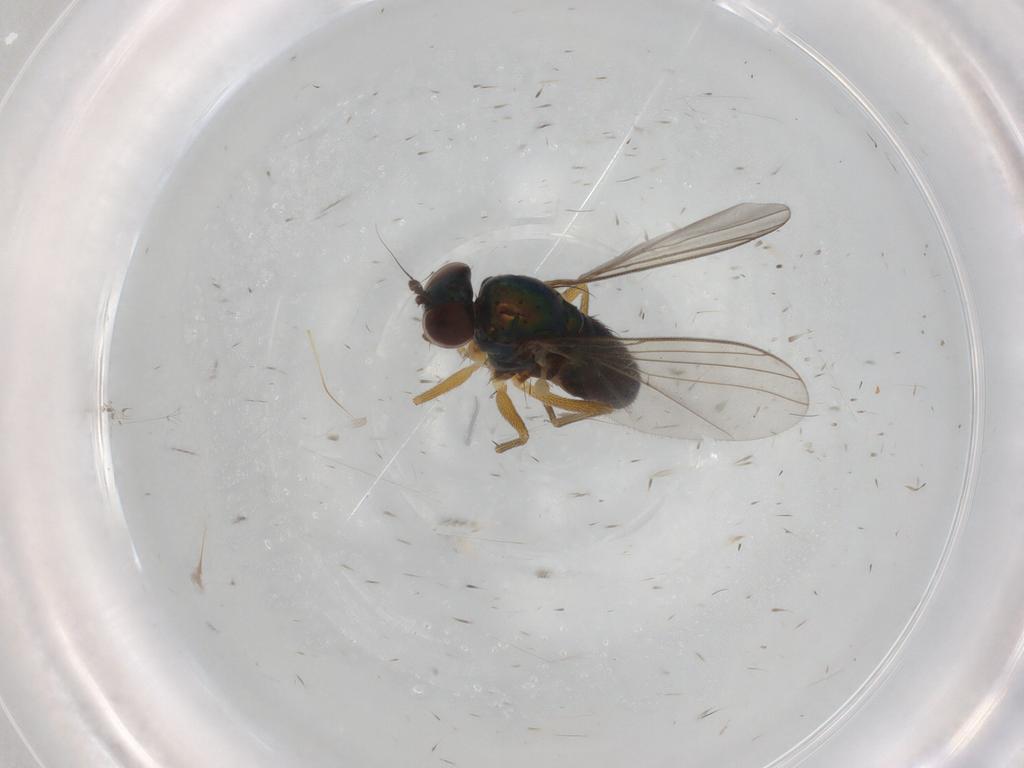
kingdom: Animalia
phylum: Arthropoda
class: Insecta
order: Diptera
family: Dolichopodidae
